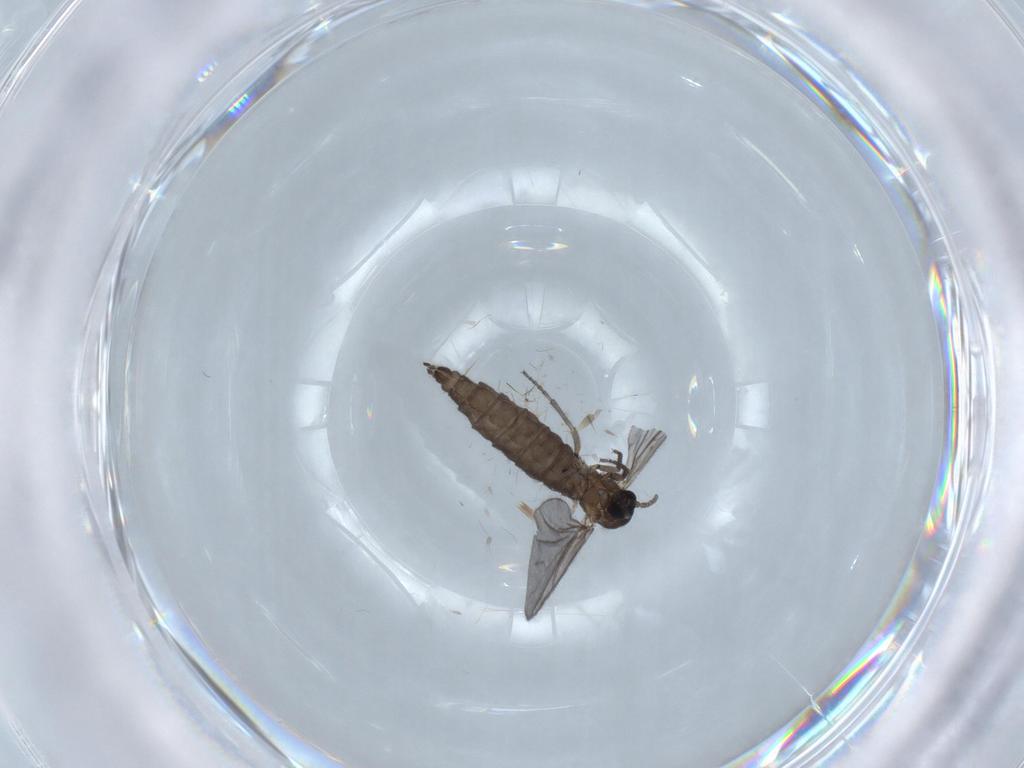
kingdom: Animalia
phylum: Arthropoda
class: Insecta
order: Diptera
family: Sciaridae
